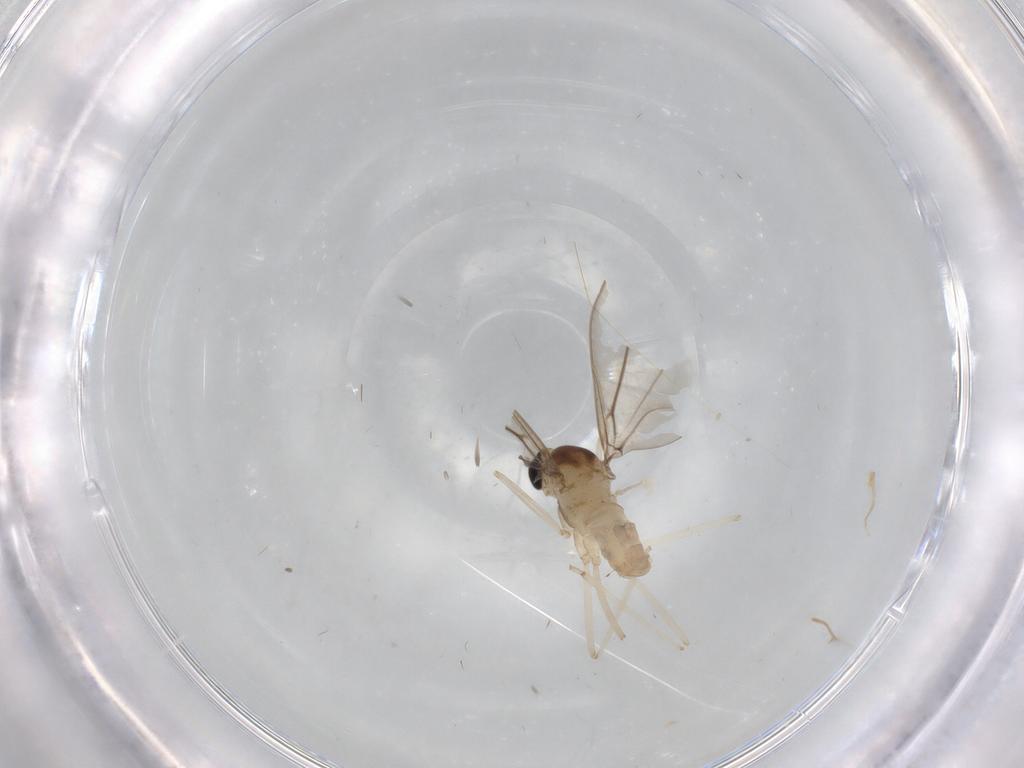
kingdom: Animalia
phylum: Arthropoda
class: Insecta
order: Diptera
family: Cecidomyiidae
